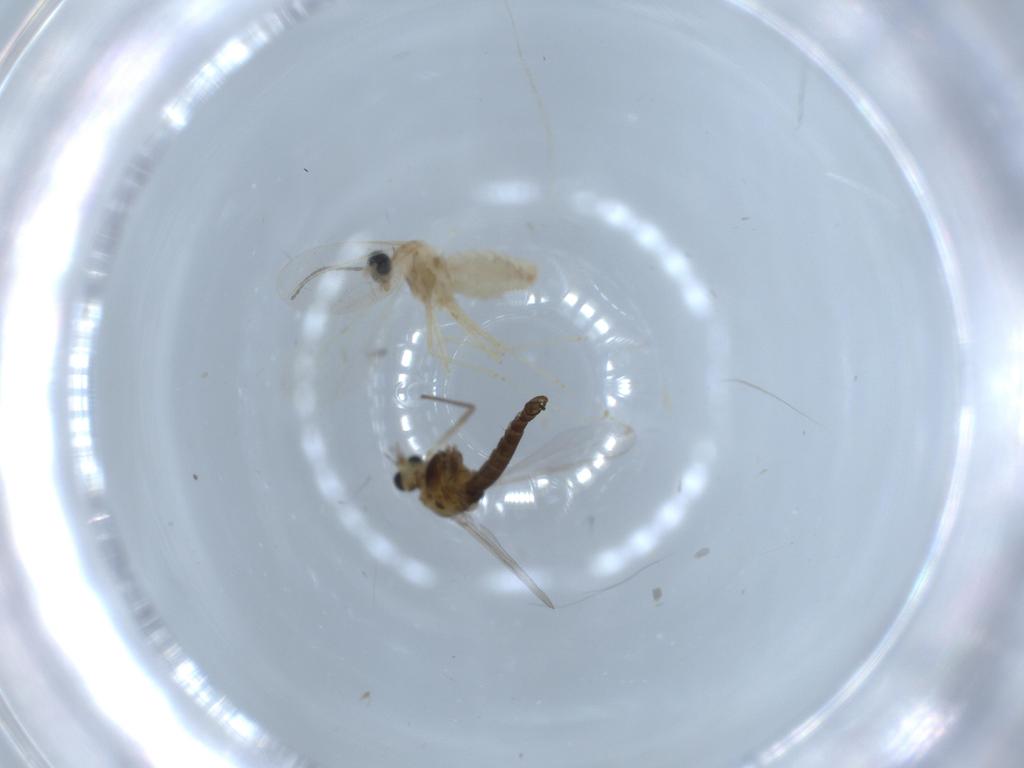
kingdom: Animalia
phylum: Arthropoda
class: Insecta
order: Diptera
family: Chironomidae
